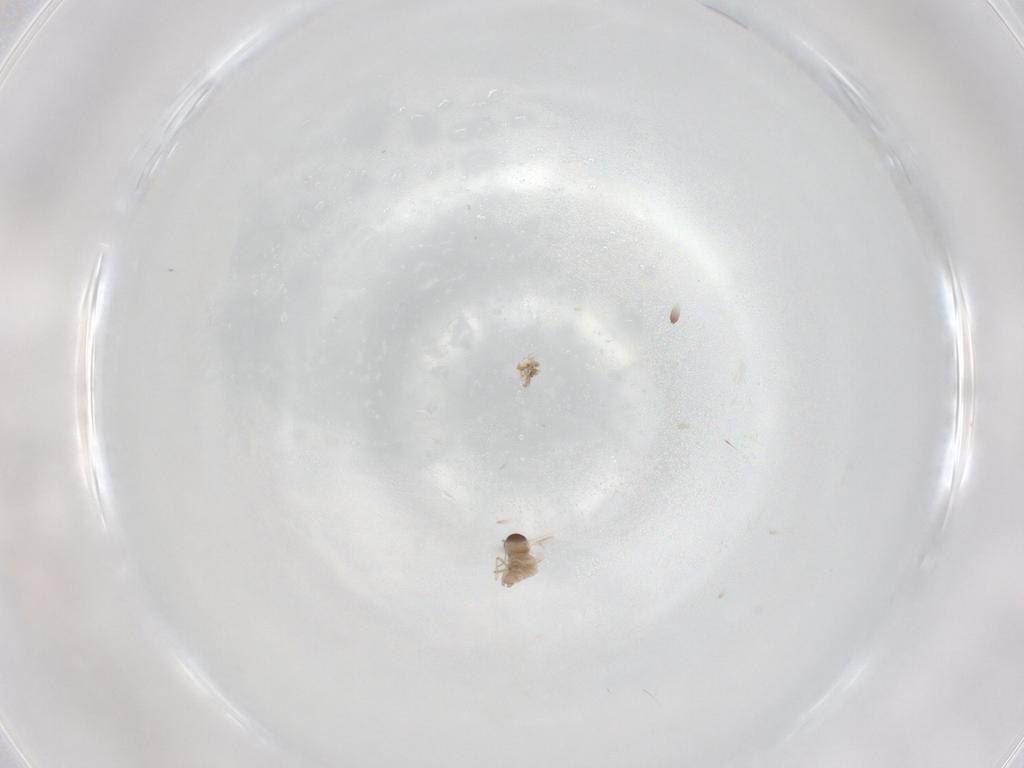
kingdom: Animalia
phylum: Arthropoda
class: Insecta
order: Diptera
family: Cecidomyiidae
